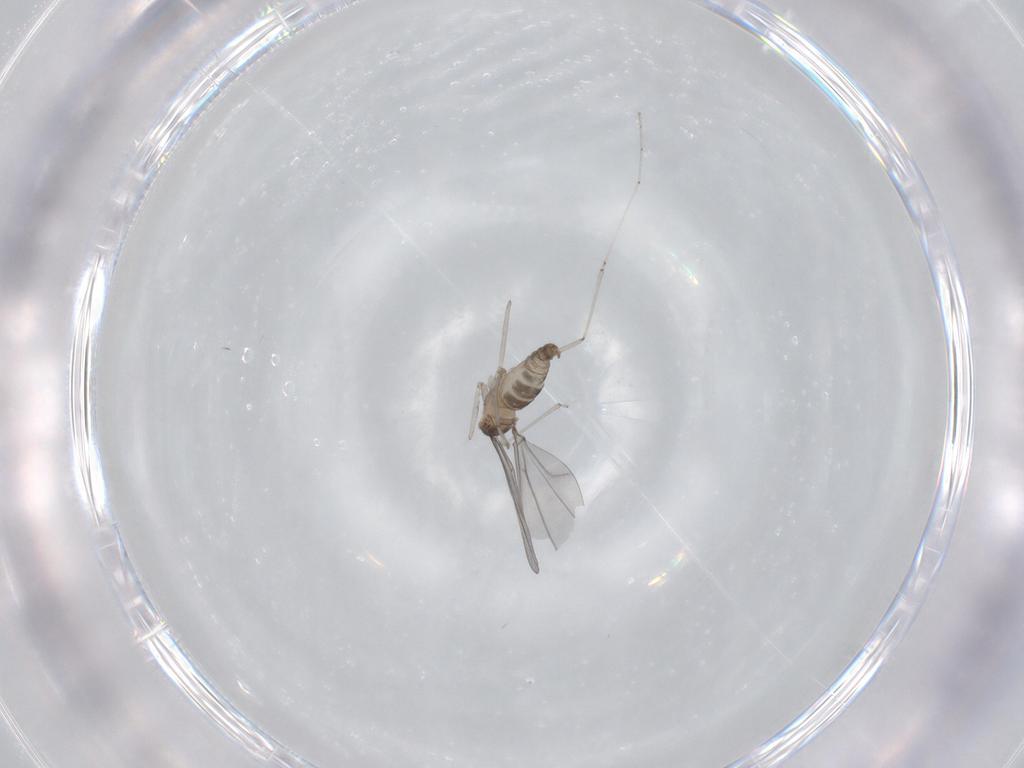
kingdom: Animalia
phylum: Arthropoda
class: Insecta
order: Diptera
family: Cecidomyiidae
